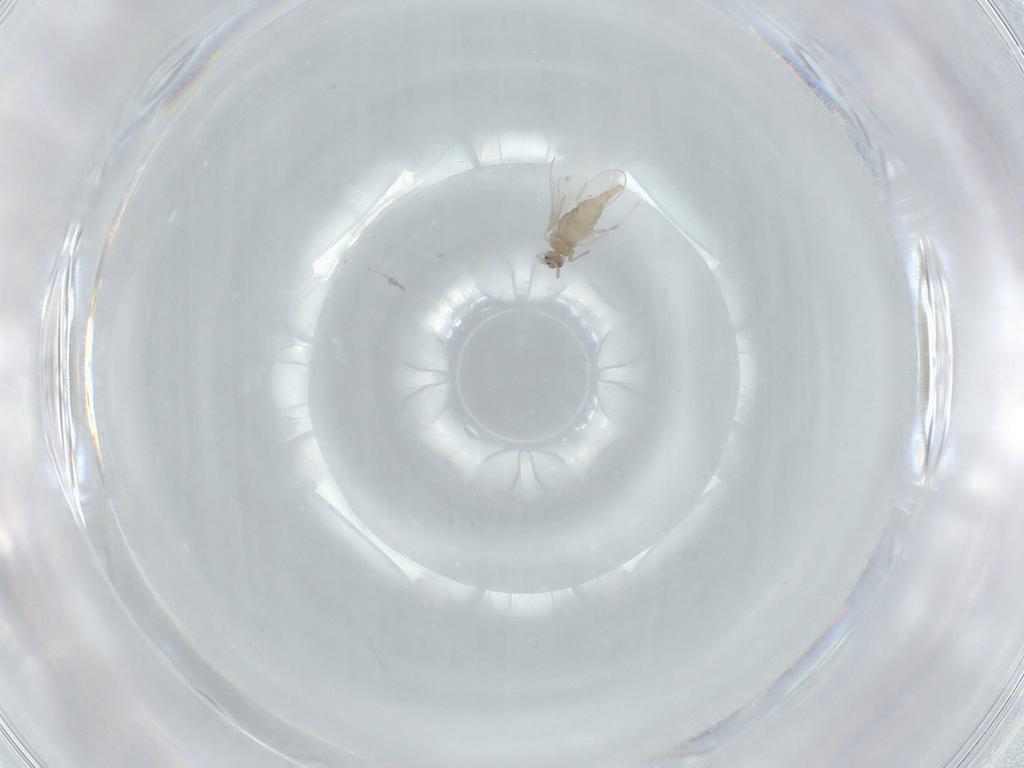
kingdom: Animalia
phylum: Arthropoda
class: Insecta
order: Diptera
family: Cecidomyiidae
